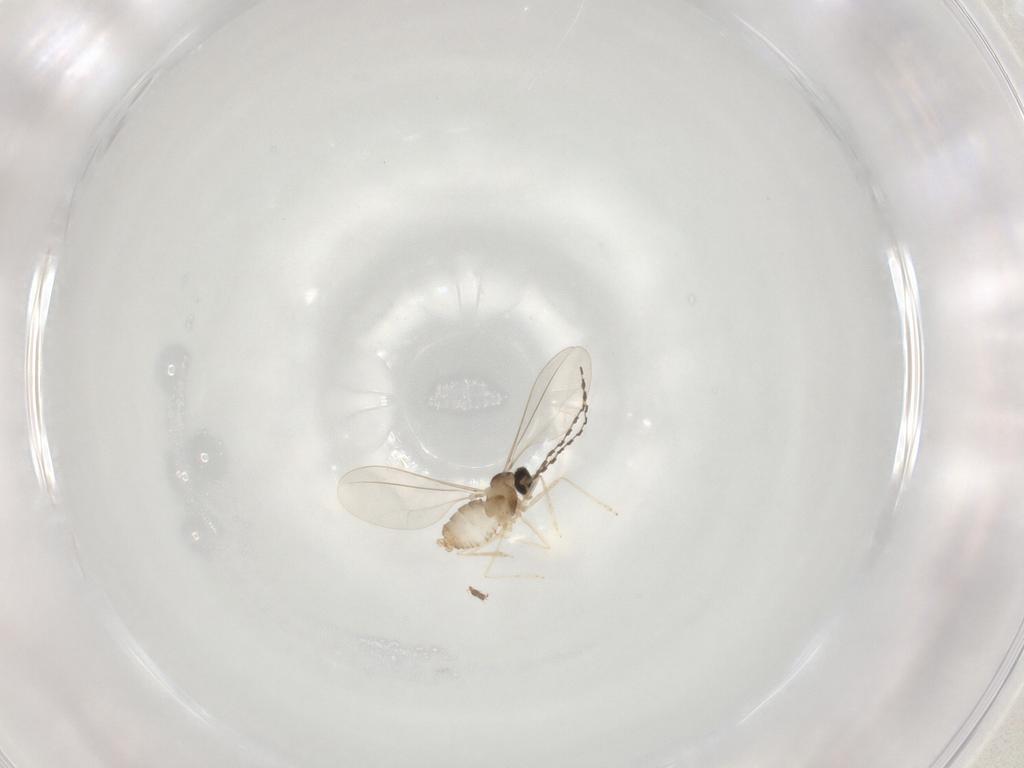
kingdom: Animalia
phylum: Arthropoda
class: Insecta
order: Diptera
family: Cecidomyiidae
